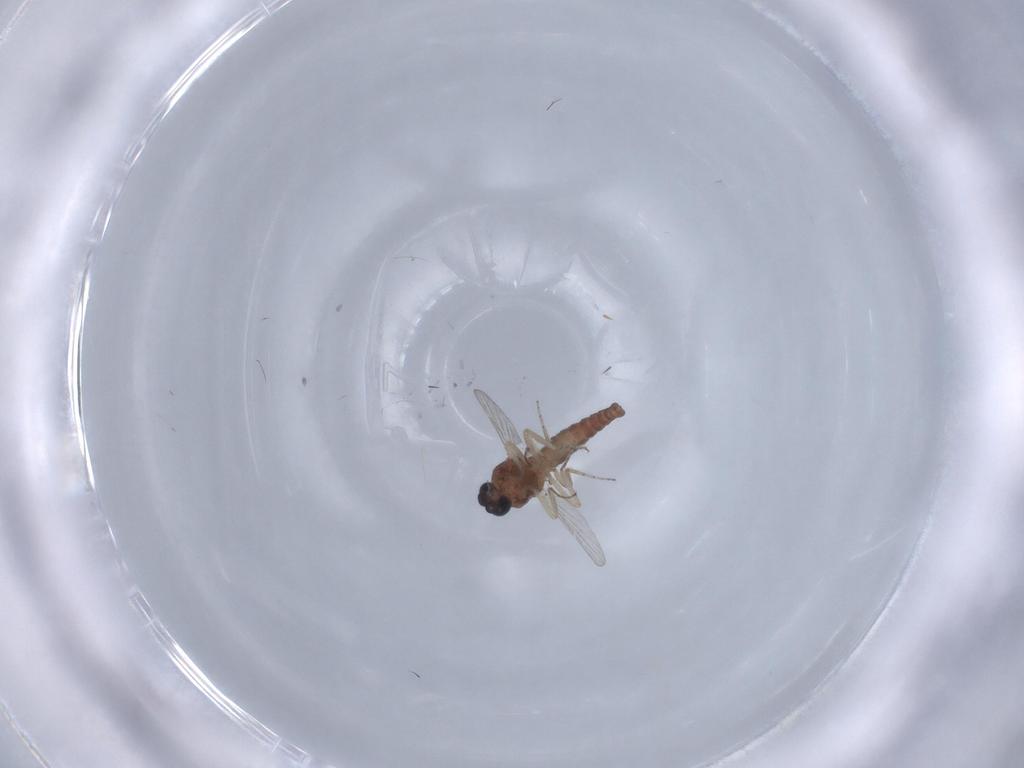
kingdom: Animalia
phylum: Arthropoda
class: Insecta
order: Diptera
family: Ceratopogonidae
